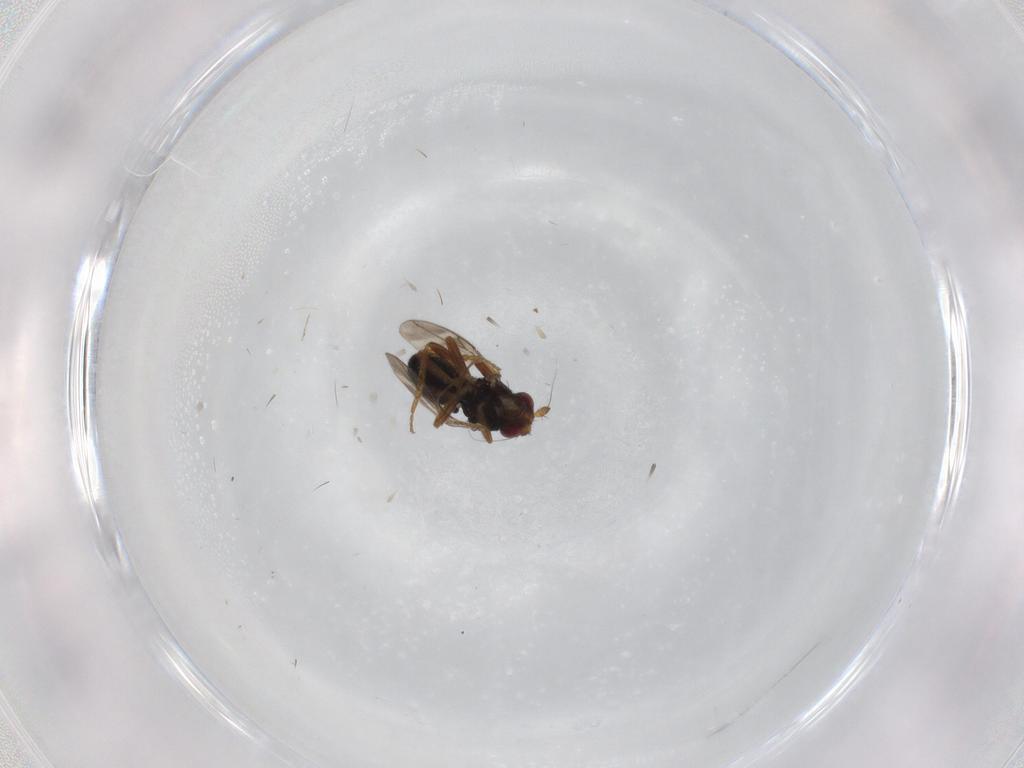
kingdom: Animalia
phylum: Arthropoda
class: Insecta
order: Diptera
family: Sphaeroceridae
